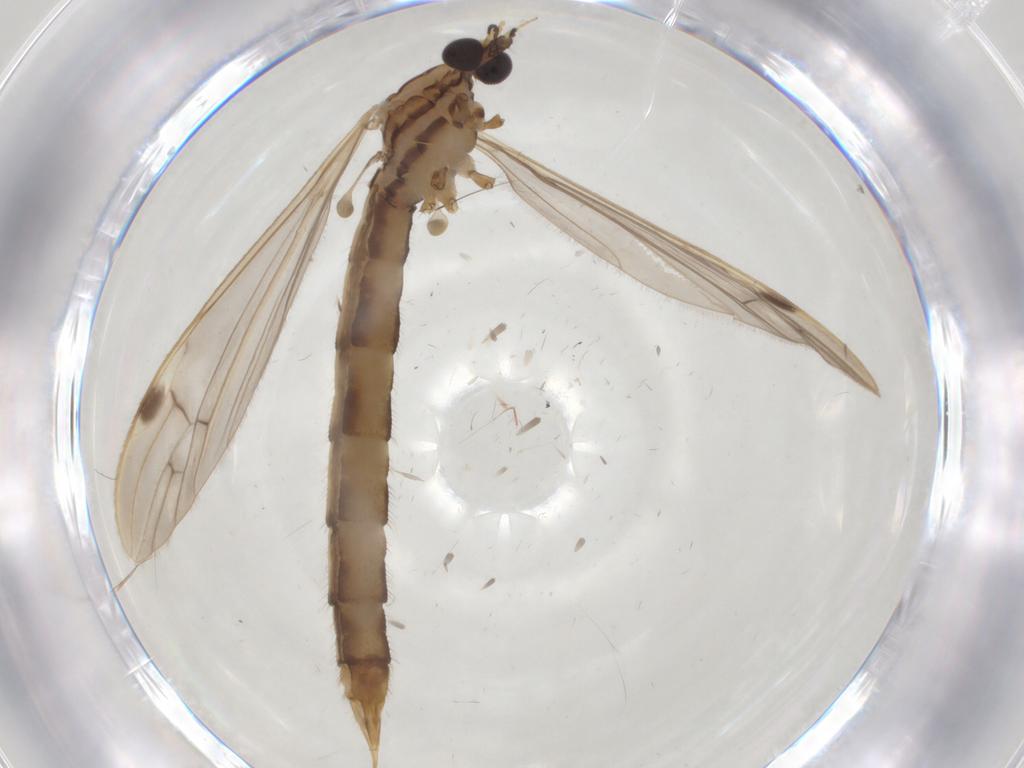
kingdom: Animalia
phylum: Arthropoda
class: Insecta
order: Diptera
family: Limoniidae
